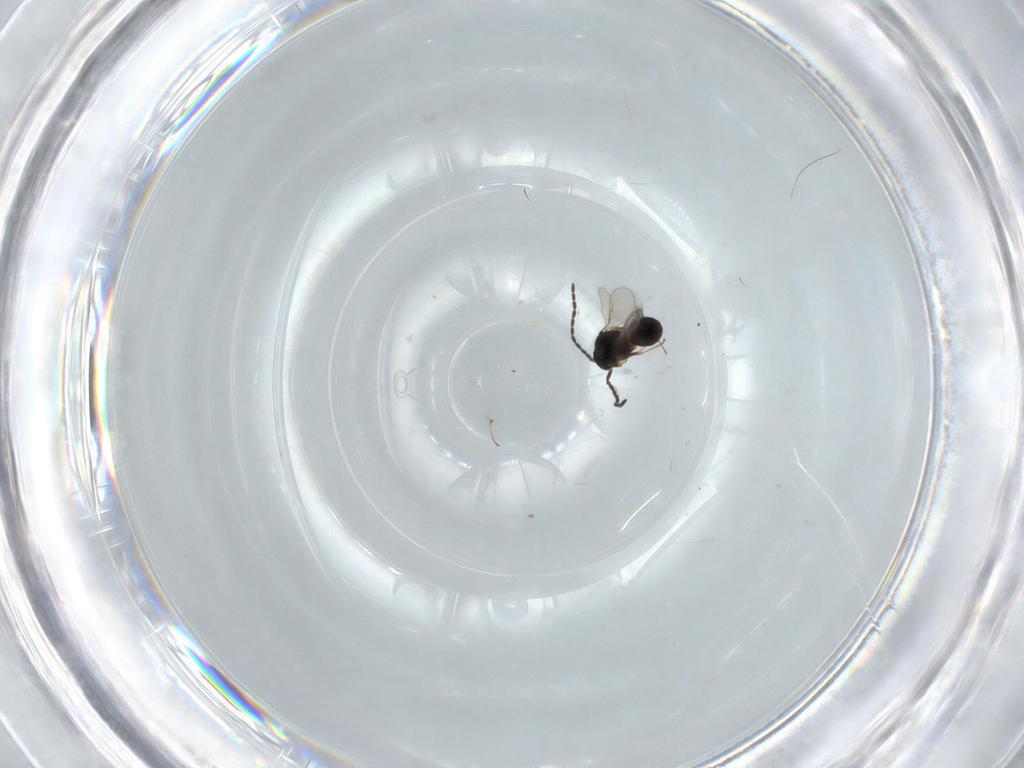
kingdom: Animalia
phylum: Arthropoda
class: Insecta
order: Hymenoptera
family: Scelionidae
